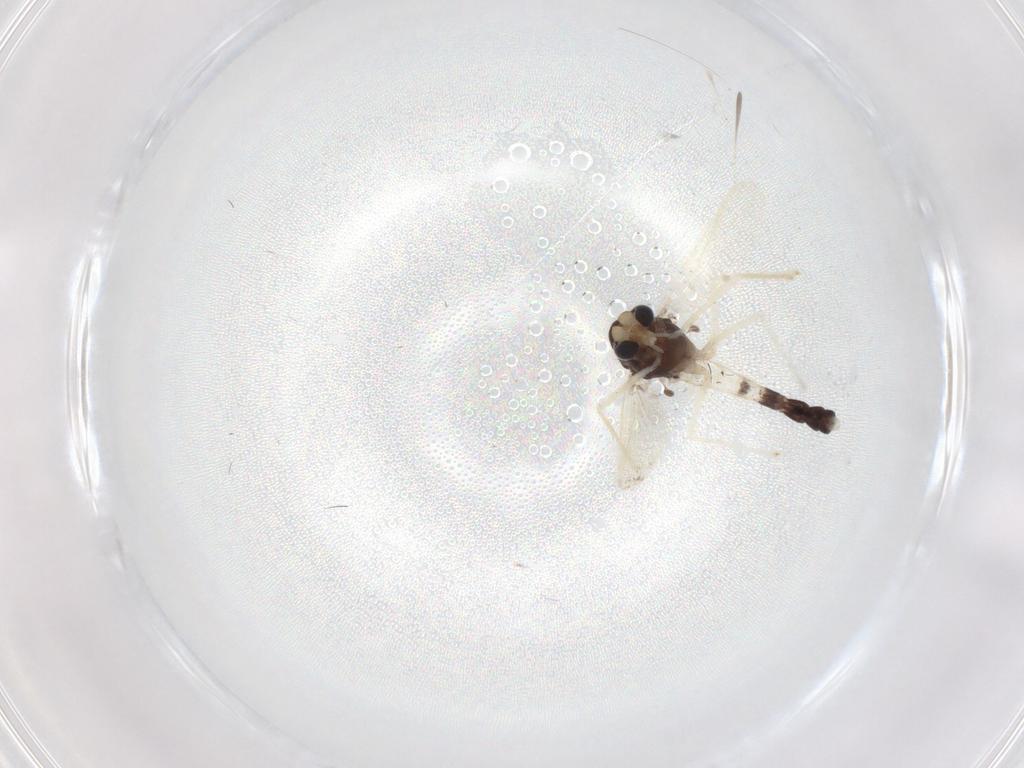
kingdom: Animalia
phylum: Arthropoda
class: Insecta
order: Diptera
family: Cecidomyiidae
